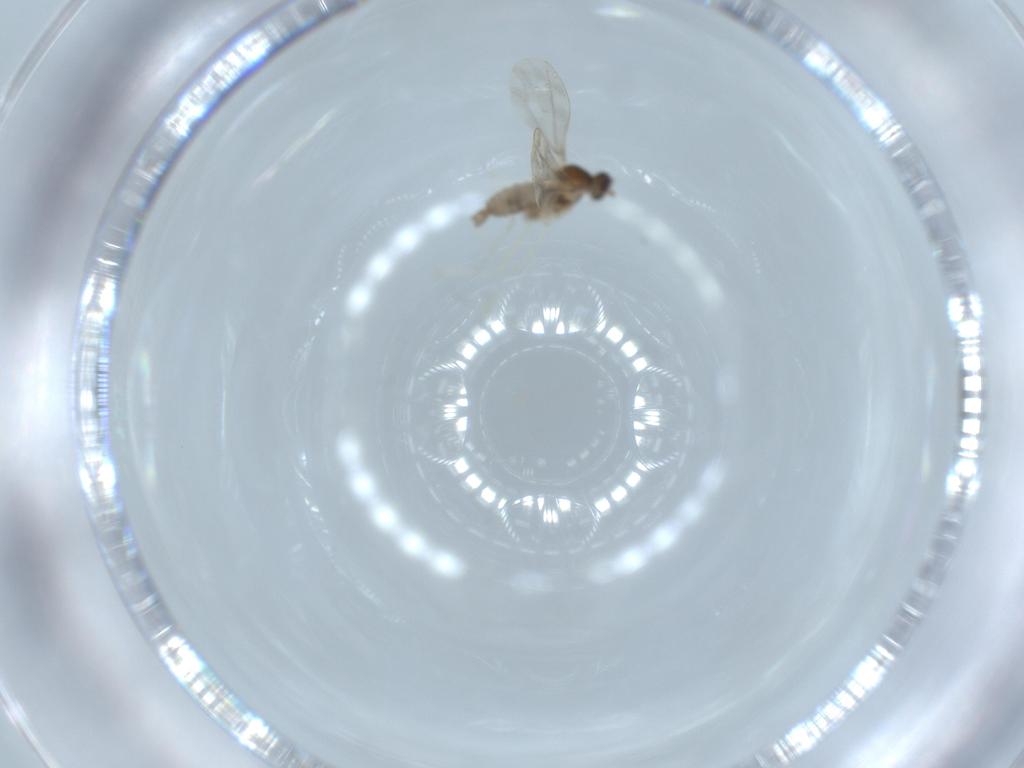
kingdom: Animalia
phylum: Arthropoda
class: Insecta
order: Diptera
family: Cecidomyiidae
